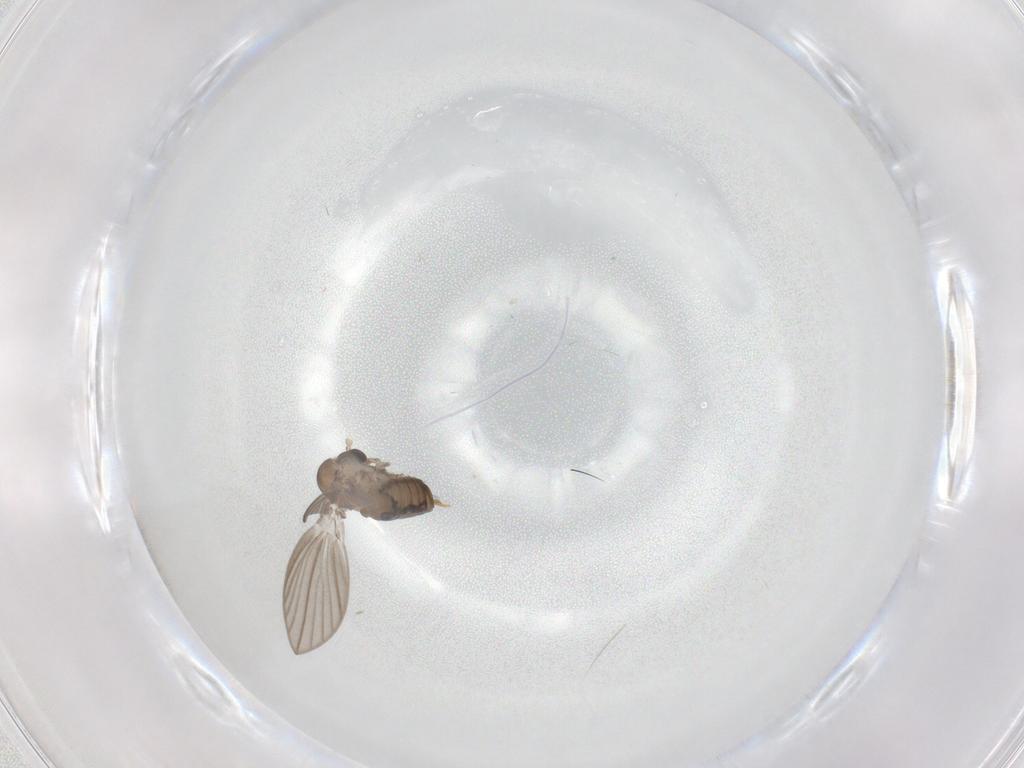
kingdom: Animalia
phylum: Arthropoda
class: Insecta
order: Diptera
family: Psychodidae
